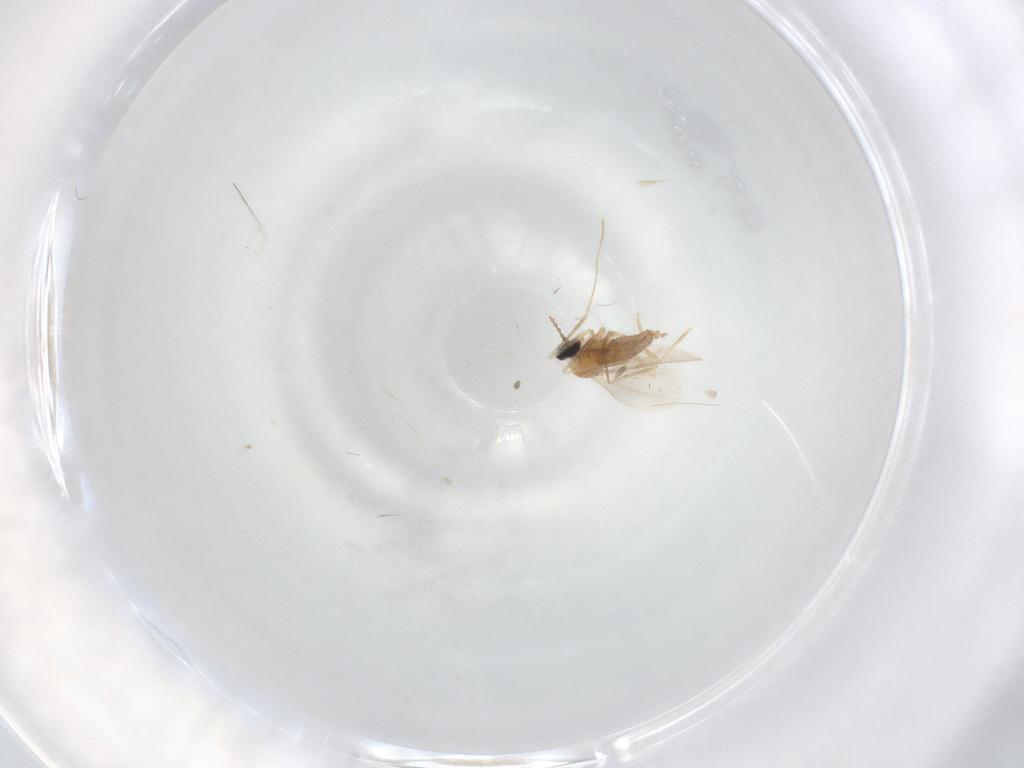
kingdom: Animalia
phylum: Arthropoda
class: Insecta
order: Diptera
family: Cecidomyiidae
